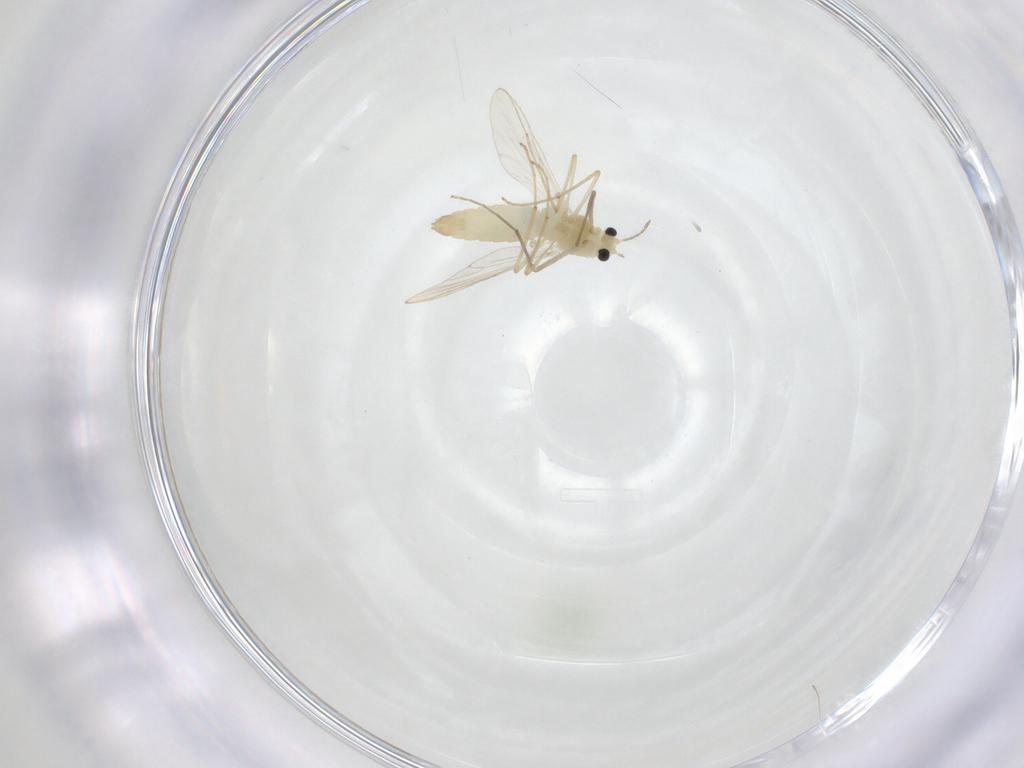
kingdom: Animalia
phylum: Arthropoda
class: Insecta
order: Diptera
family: Chironomidae
